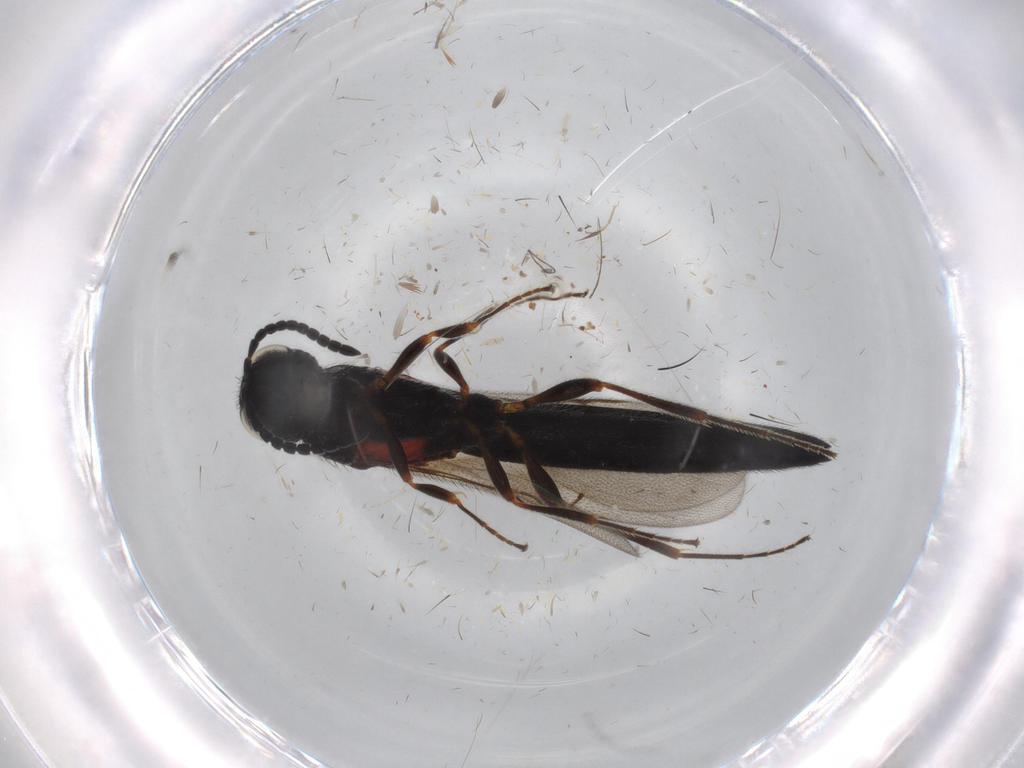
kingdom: Animalia
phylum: Arthropoda
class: Insecta
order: Hymenoptera
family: Scelionidae
